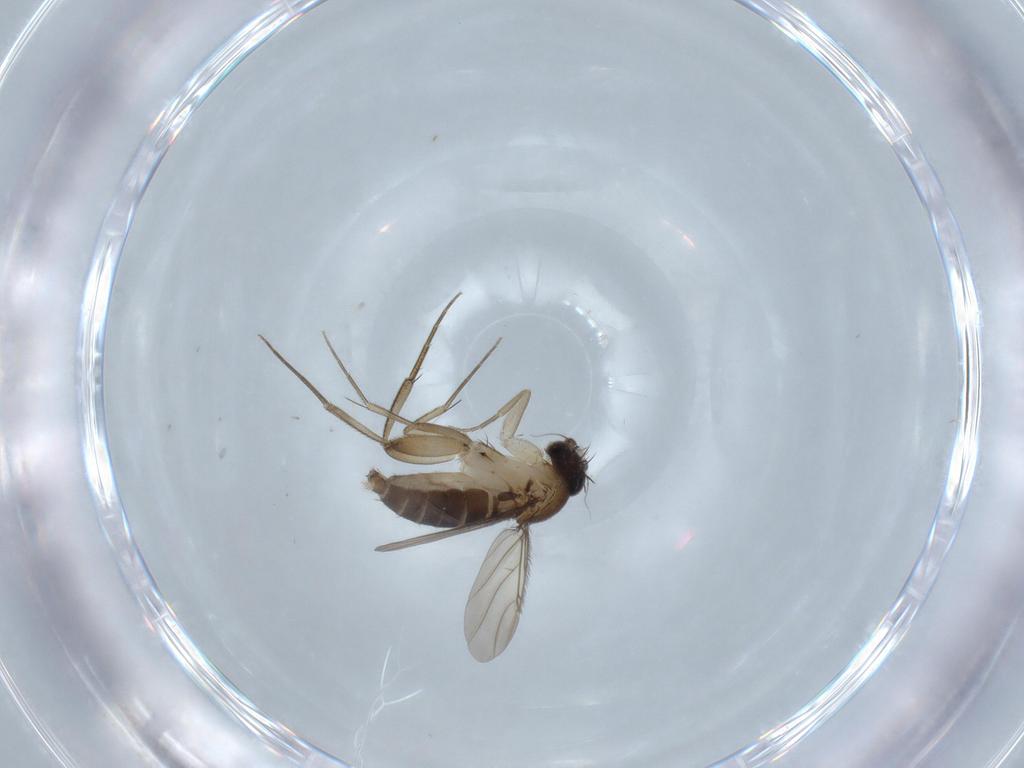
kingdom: Animalia
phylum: Arthropoda
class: Insecta
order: Diptera
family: Phoridae
